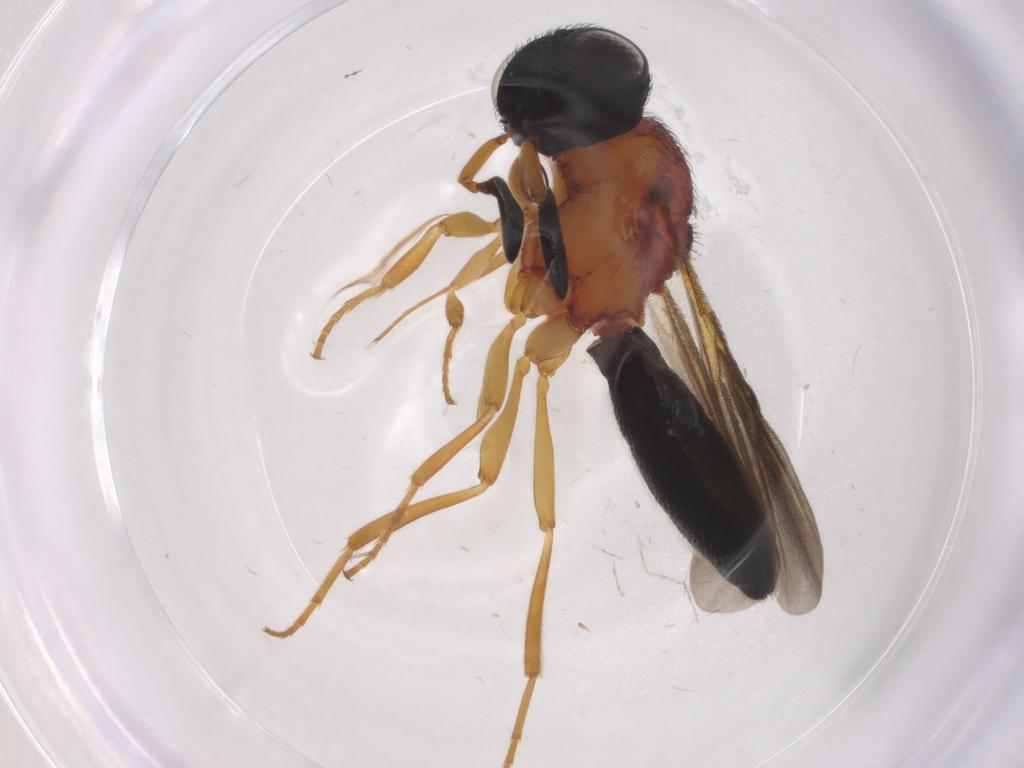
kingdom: Animalia
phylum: Arthropoda
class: Insecta
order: Hymenoptera
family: Scelionidae
